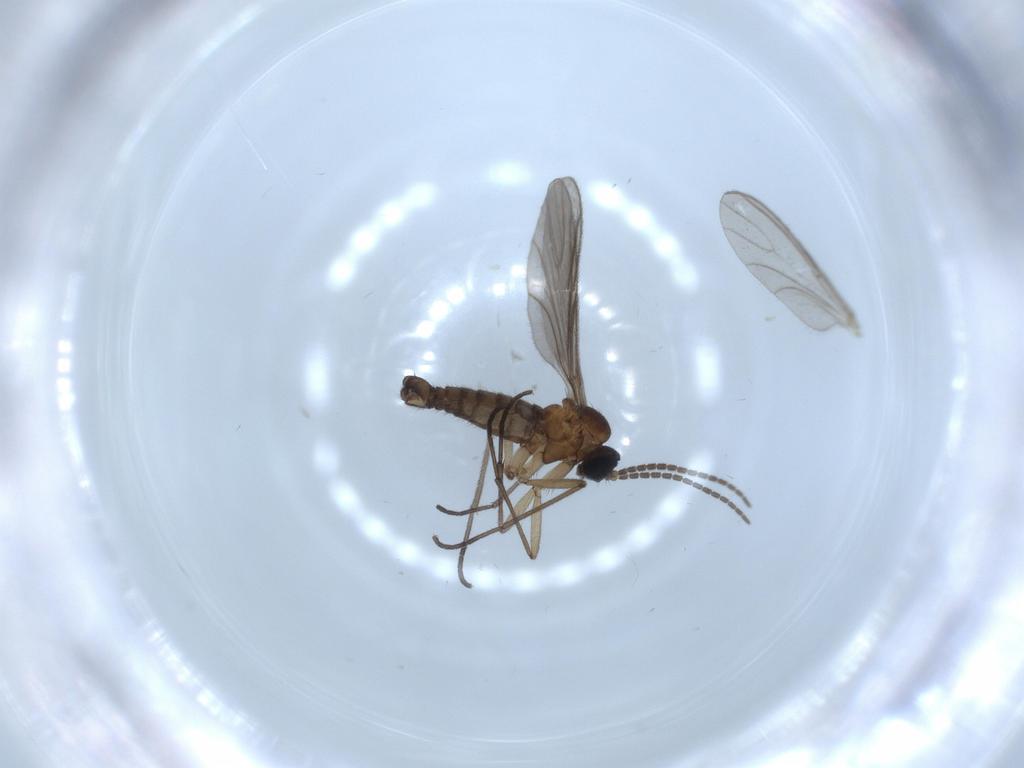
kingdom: Animalia
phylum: Arthropoda
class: Insecta
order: Diptera
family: Sciaridae
